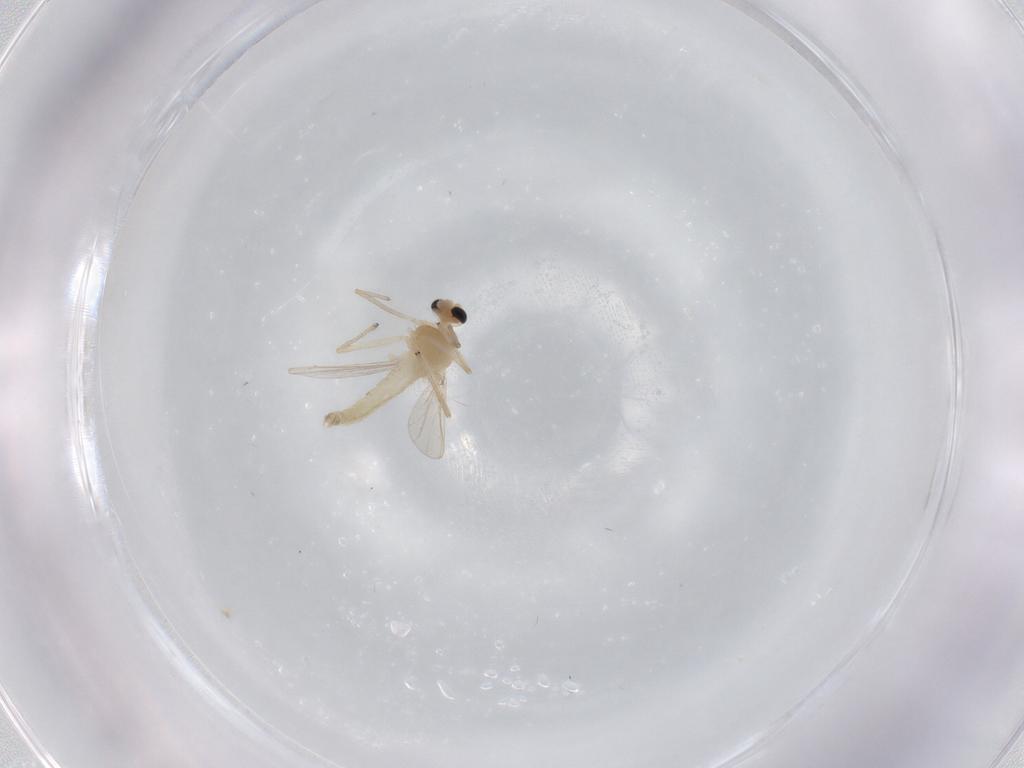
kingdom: Animalia
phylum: Arthropoda
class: Insecta
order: Diptera
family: Chironomidae
